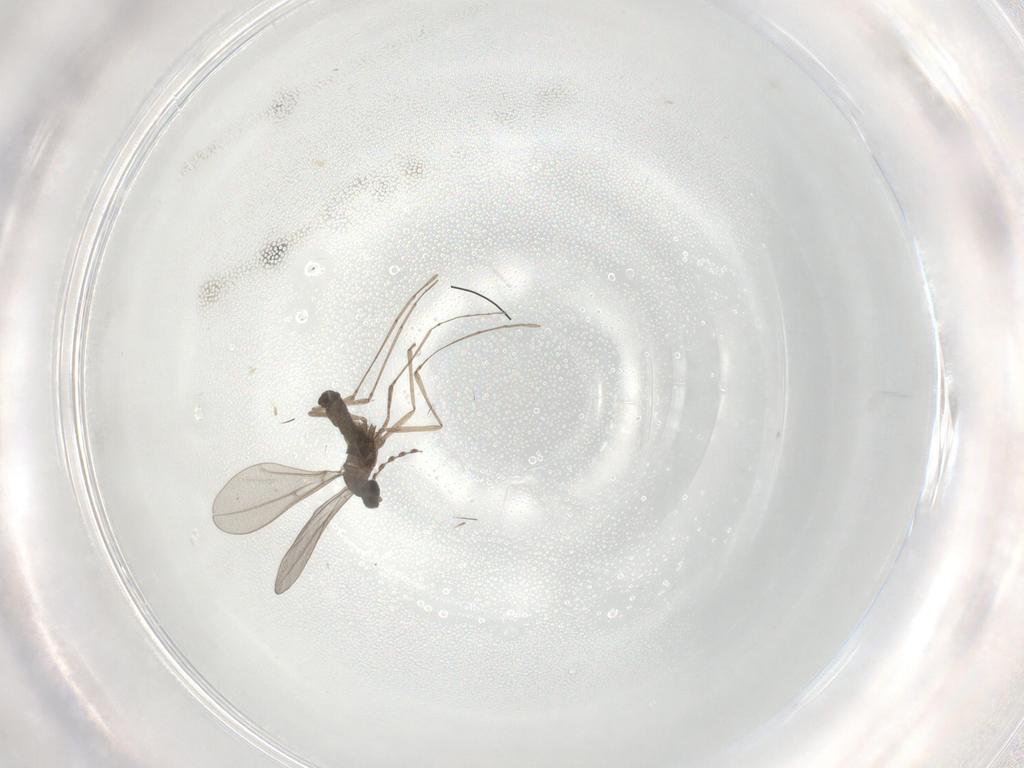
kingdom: Animalia
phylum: Arthropoda
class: Insecta
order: Diptera
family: Cecidomyiidae
